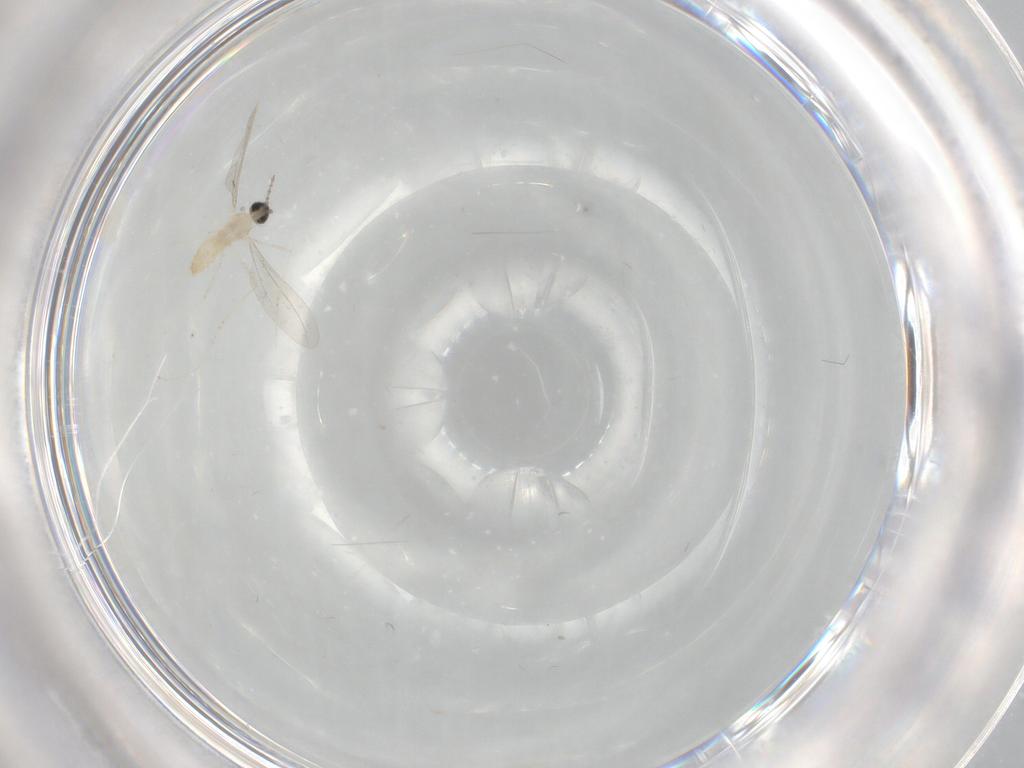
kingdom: Animalia
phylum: Arthropoda
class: Insecta
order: Diptera
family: Cecidomyiidae
